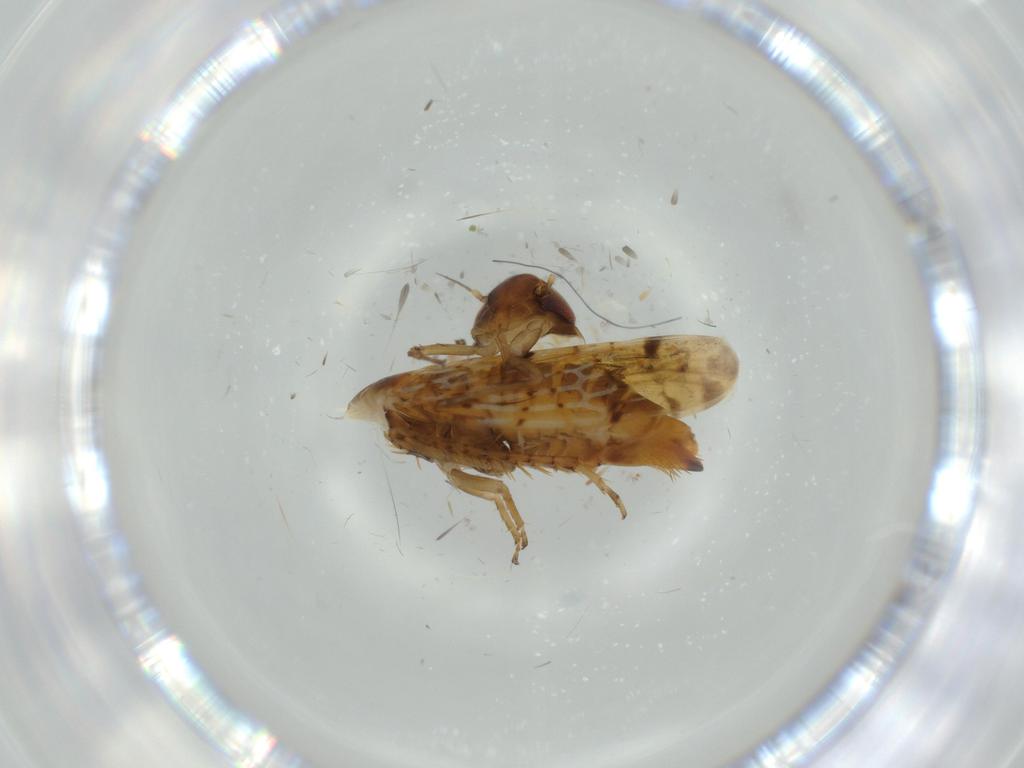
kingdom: Animalia
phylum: Arthropoda
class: Insecta
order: Hemiptera
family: Cicadellidae
